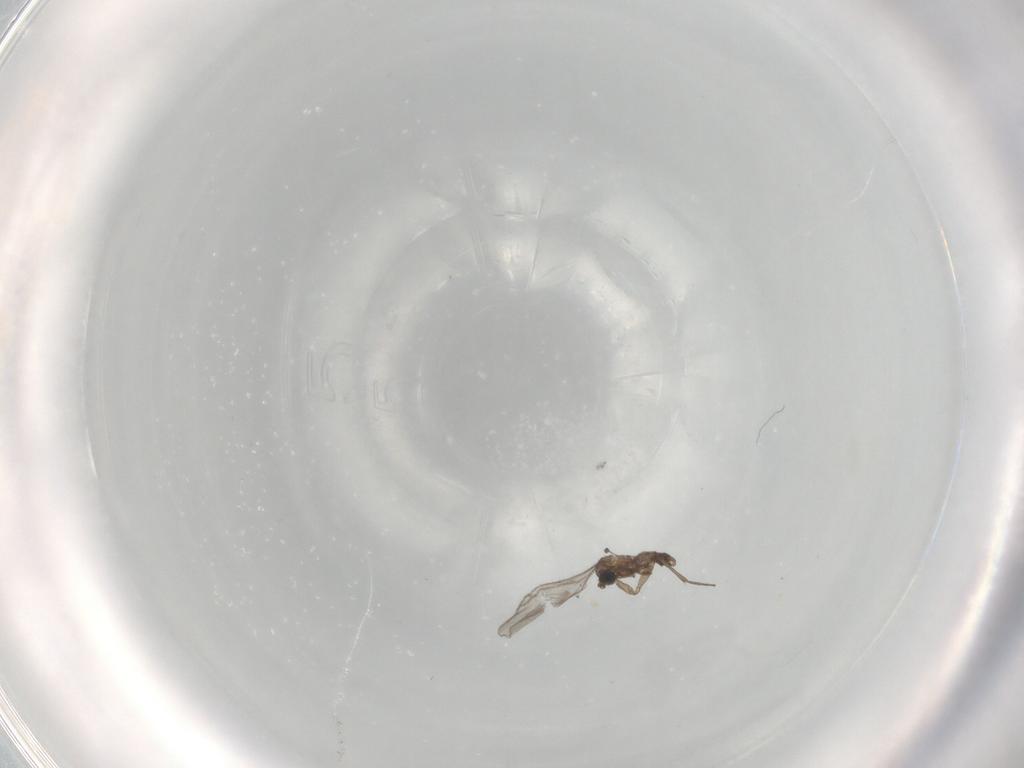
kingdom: Animalia
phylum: Arthropoda
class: Insecta
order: Diptera
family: Sciaridae
